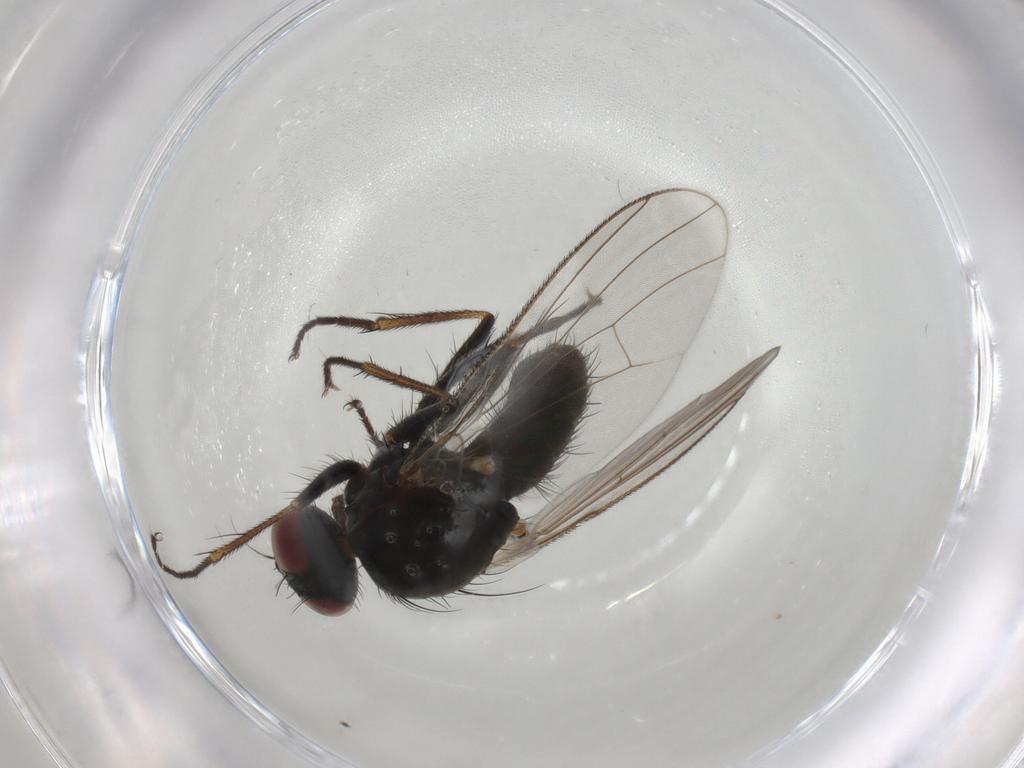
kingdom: Animalia
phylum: Arthropoda
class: Insecta
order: Diptera
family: Muscidae
